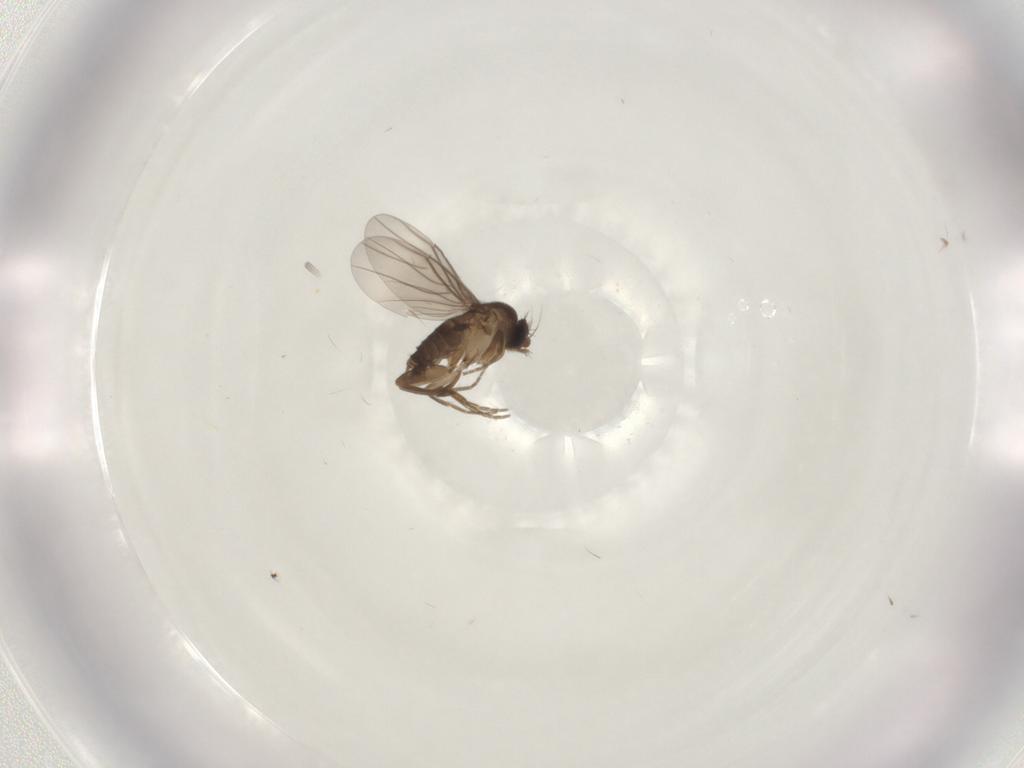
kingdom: Animalia
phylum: Arthropoda
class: Insecta
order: Diptera
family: Phoridae
